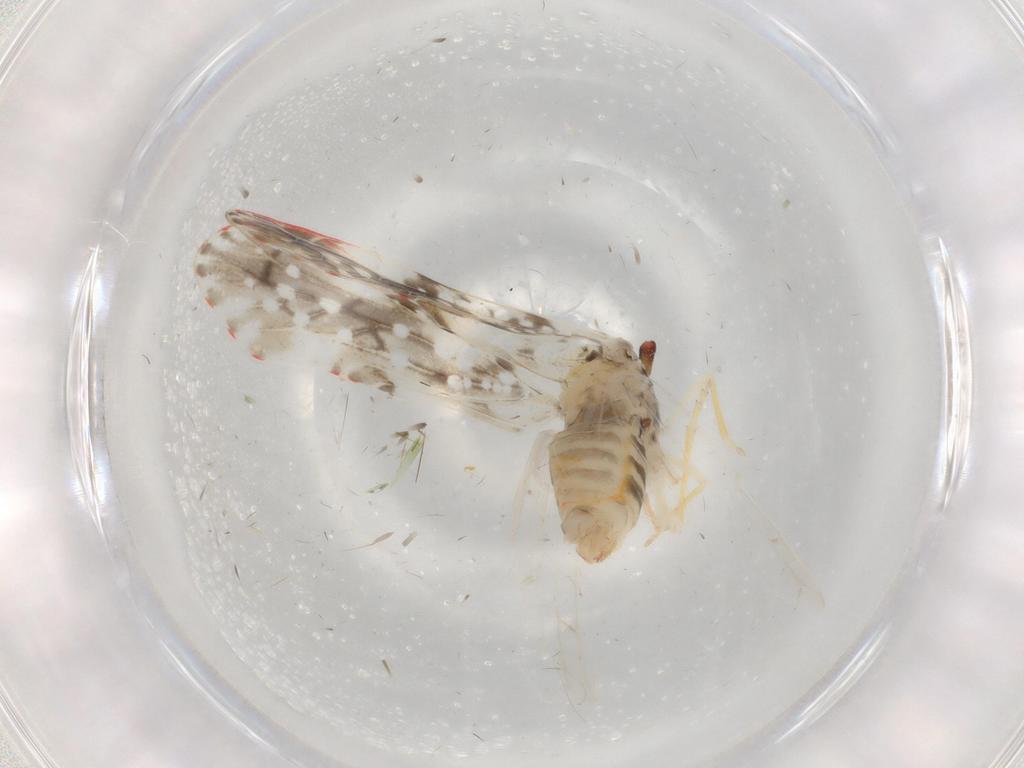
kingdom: Animalia
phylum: Arthropoda
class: Insecta
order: Hemiptera
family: Derbidae
